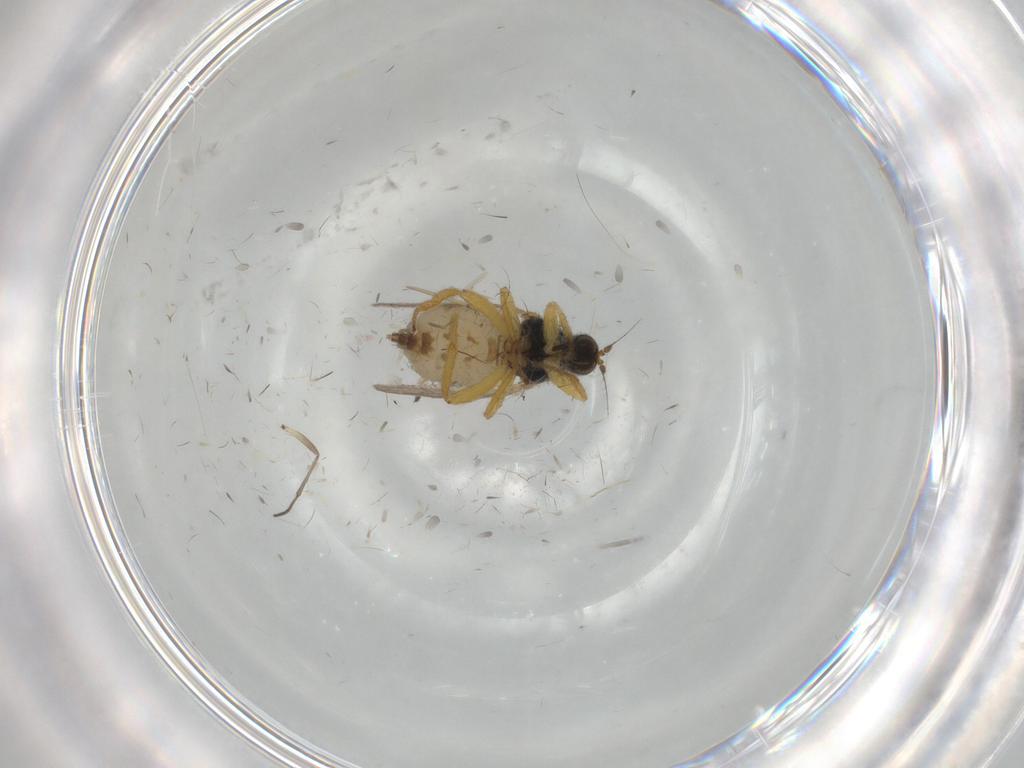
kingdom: Animalia
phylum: Arthropoda
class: Insecta
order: Diptera
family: Hybotidae
